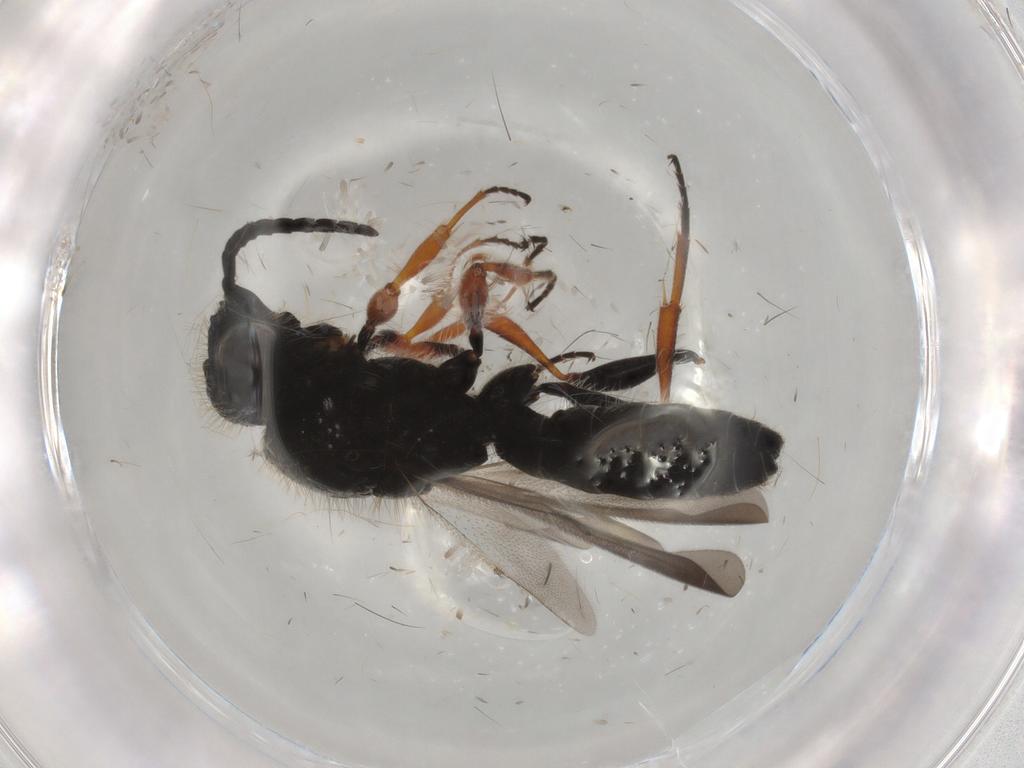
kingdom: Animalia
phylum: Arthropoda
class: Insecta
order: Hymenoptera
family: Scelionidae
